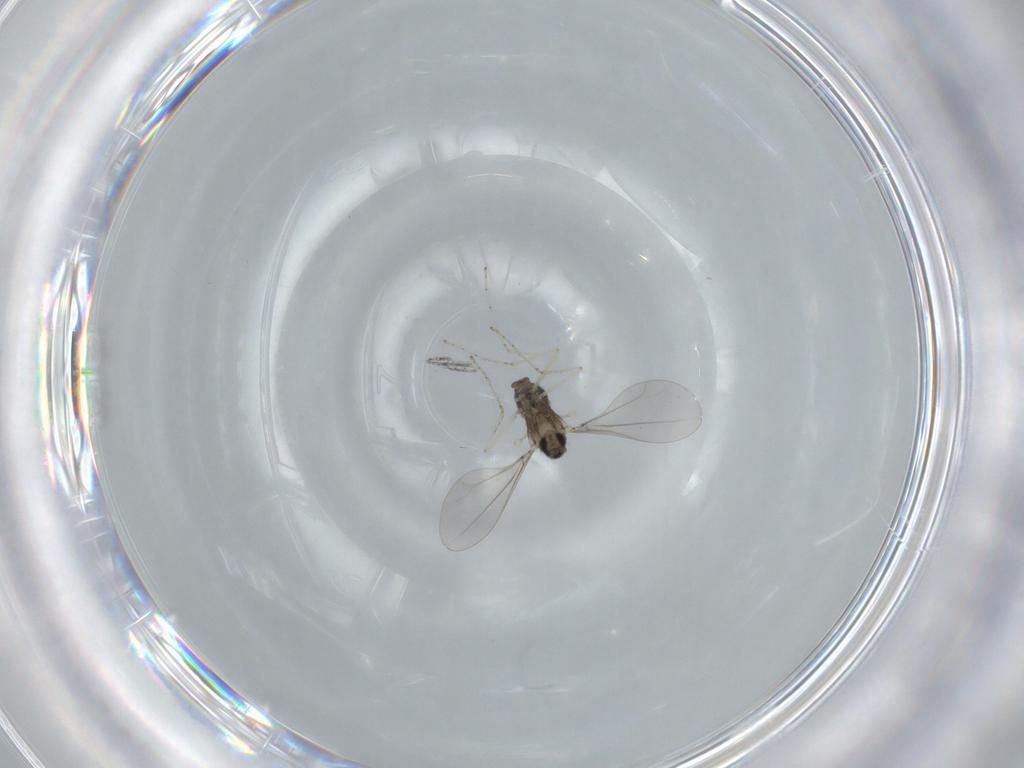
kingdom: Animalia
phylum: Arthropoda
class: Insecta
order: Diptera
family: Cecidomyiidae
